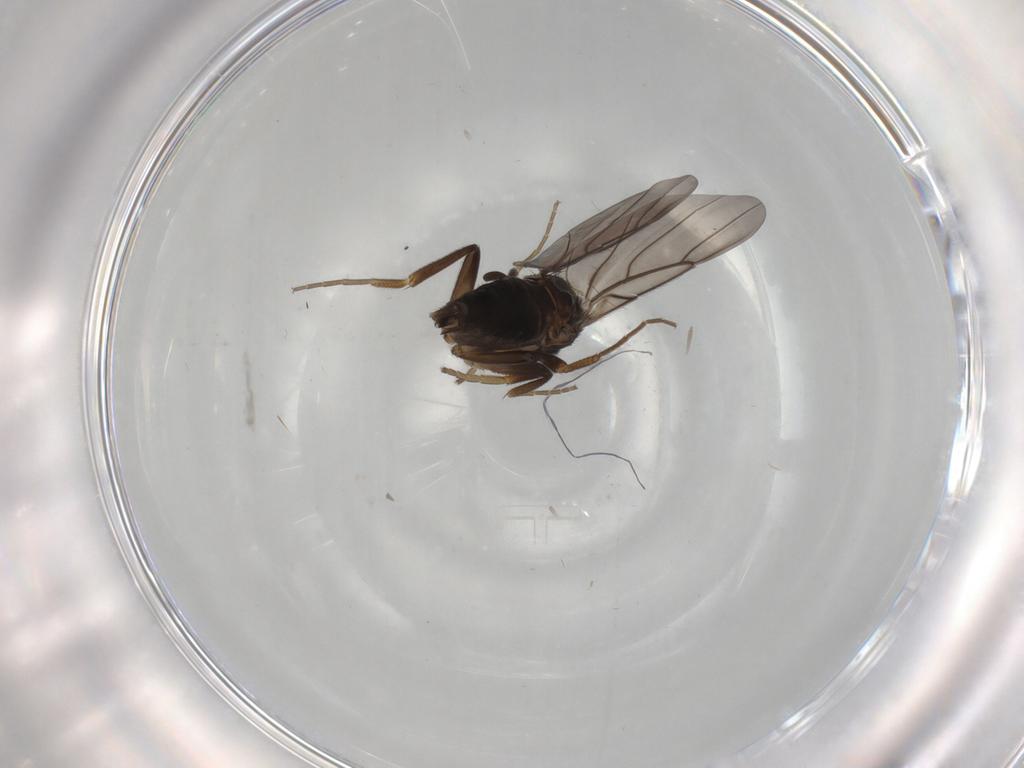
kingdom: Animalia
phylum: Arthropoda
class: Insecta
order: Diptera
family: Phoridae
